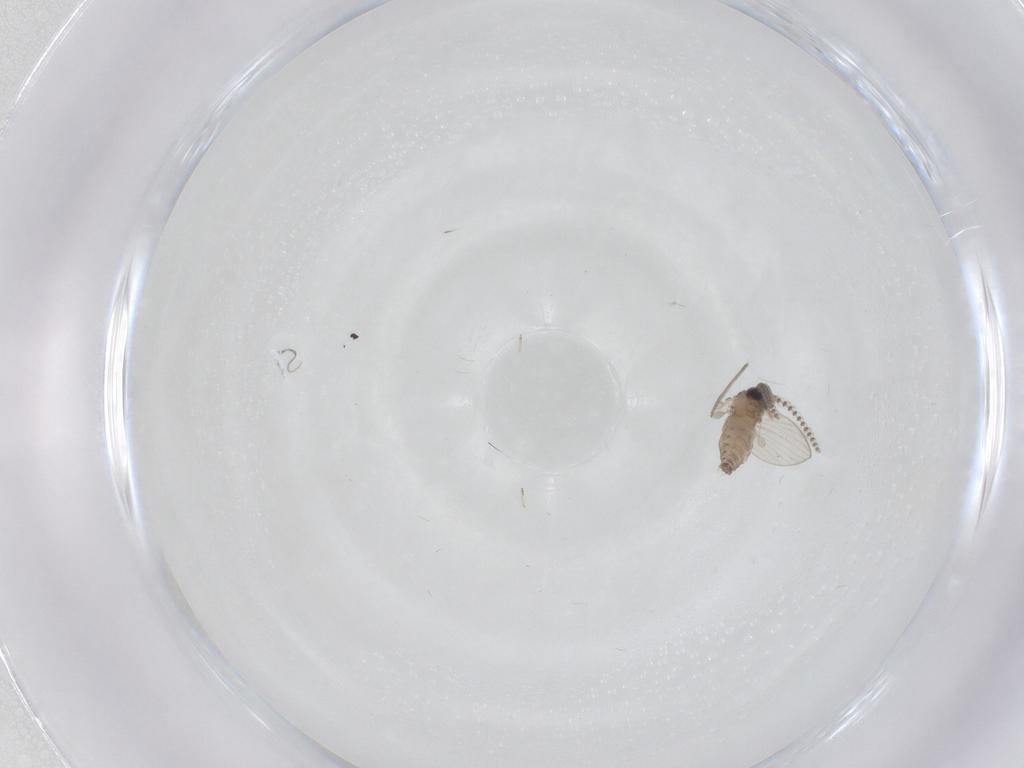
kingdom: Animalia
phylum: Arthropoda
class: Insecta
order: Diptera
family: Psychodidae
